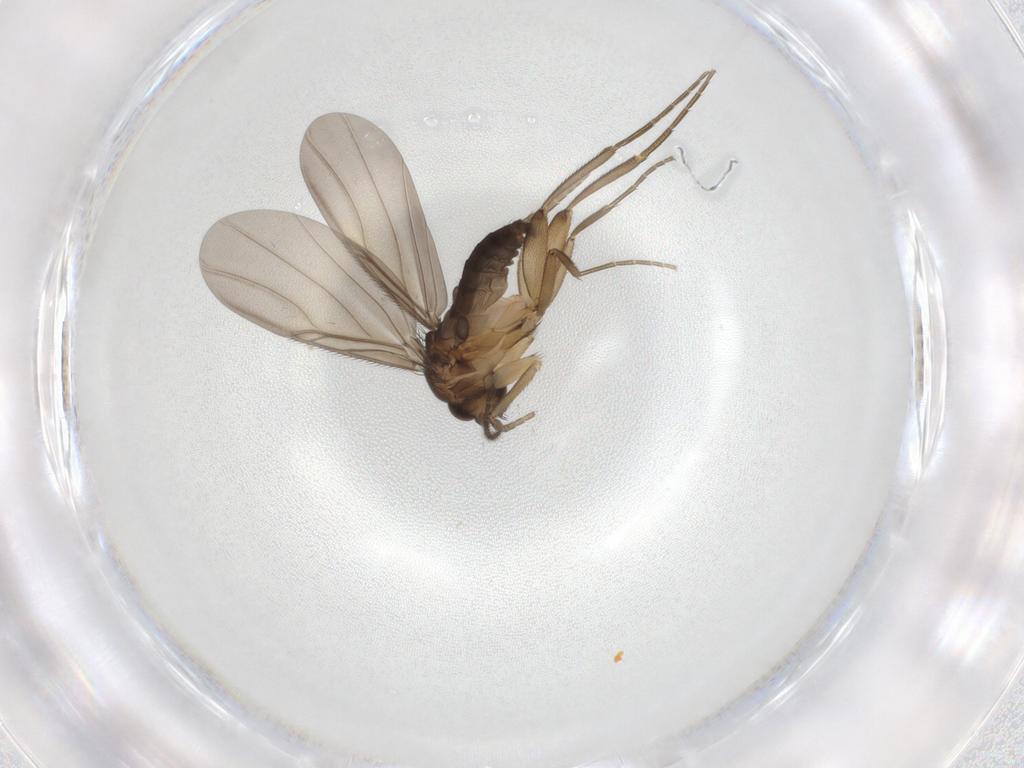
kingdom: Animalia
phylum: Arthropoda
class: Insecta
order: Diptera
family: Phoridae
